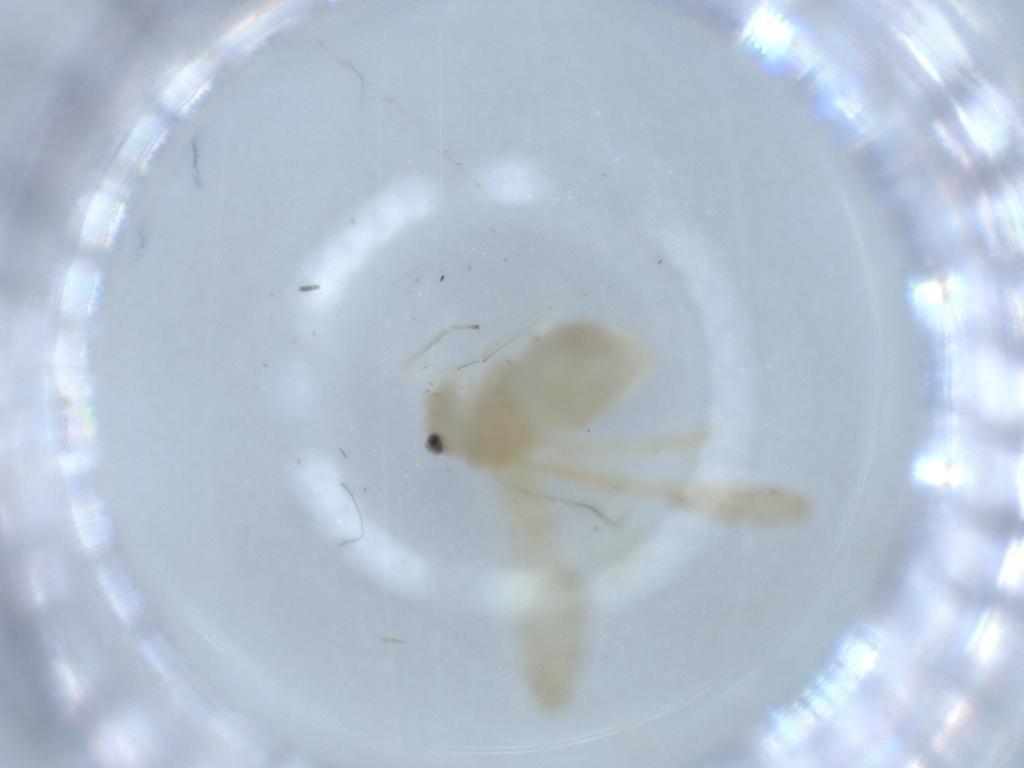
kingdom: Animalia
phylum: Arthropoda
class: Insecta
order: Psocodea
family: Caeciliusidae
